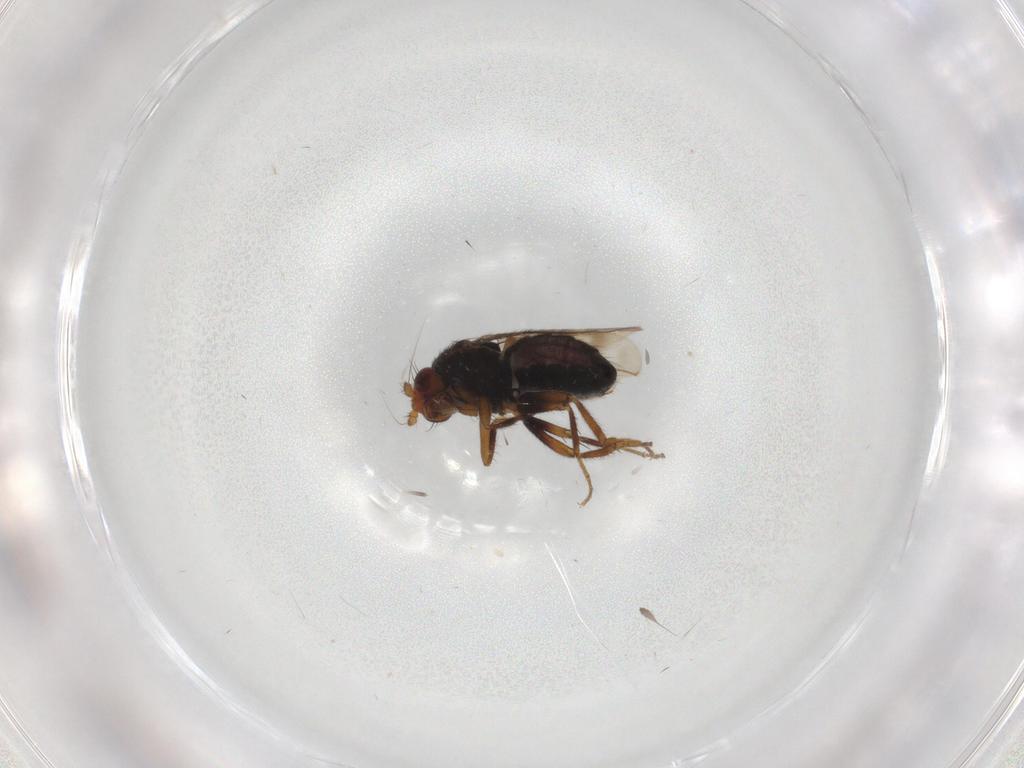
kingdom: Animalia
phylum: Arthropoda
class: Insecta
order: Diptera
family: Sphaeroceridae
